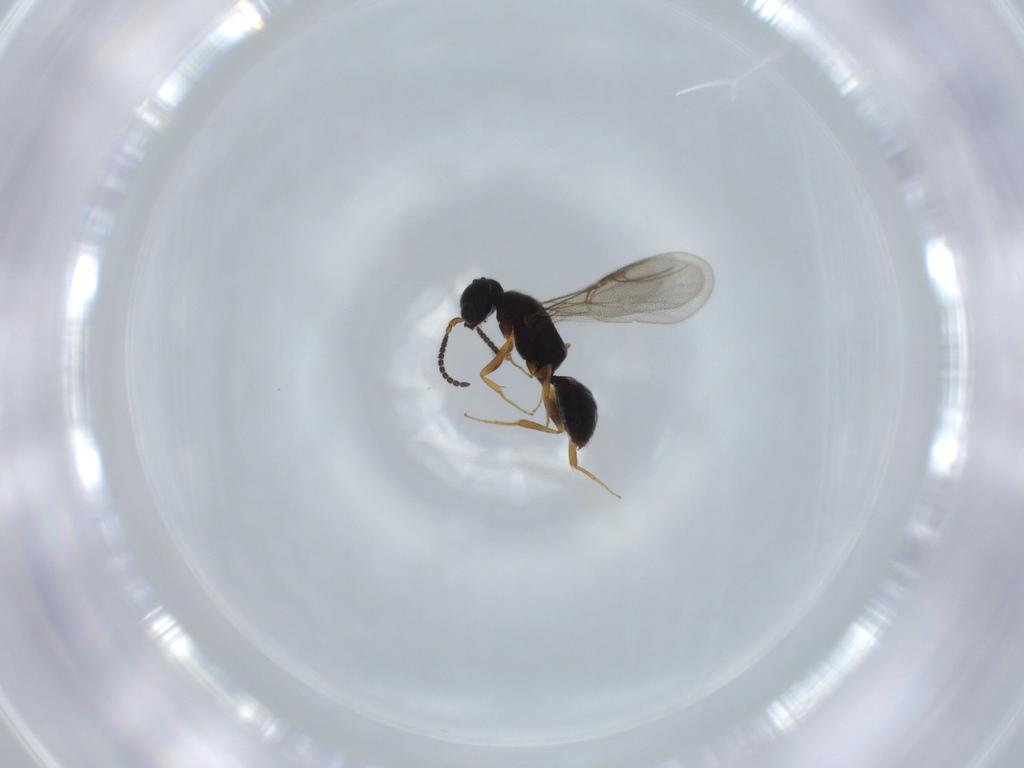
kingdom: Animalia
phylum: Arthropoda
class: Insecta
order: Hymenoptera
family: Bethylidae
